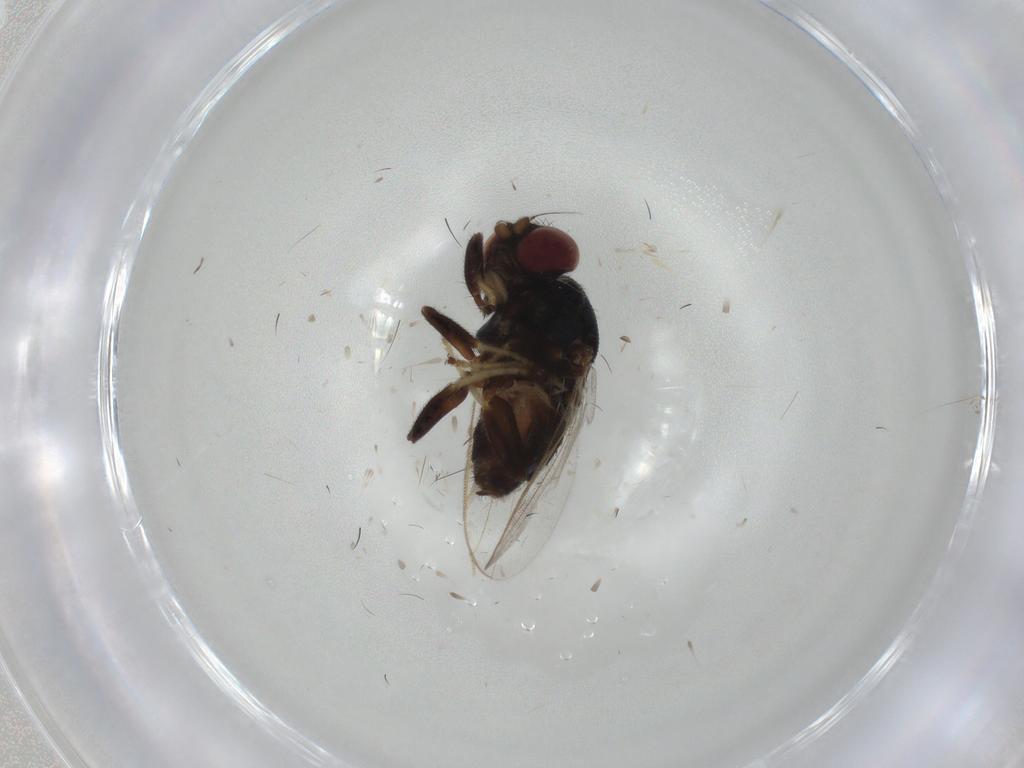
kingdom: Animalia
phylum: Arthropoda
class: Insecta
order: Diptera
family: Chloropidae
